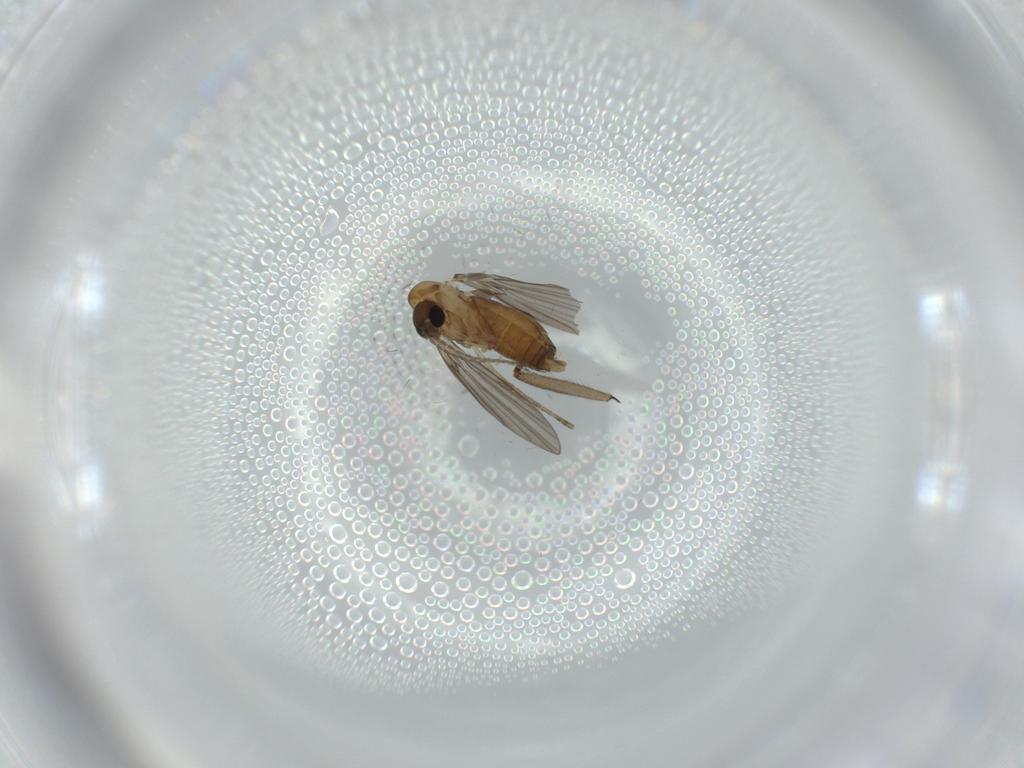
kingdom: Animalia
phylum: Arthropoda
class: Insecta
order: Diptera
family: Sciaridae
